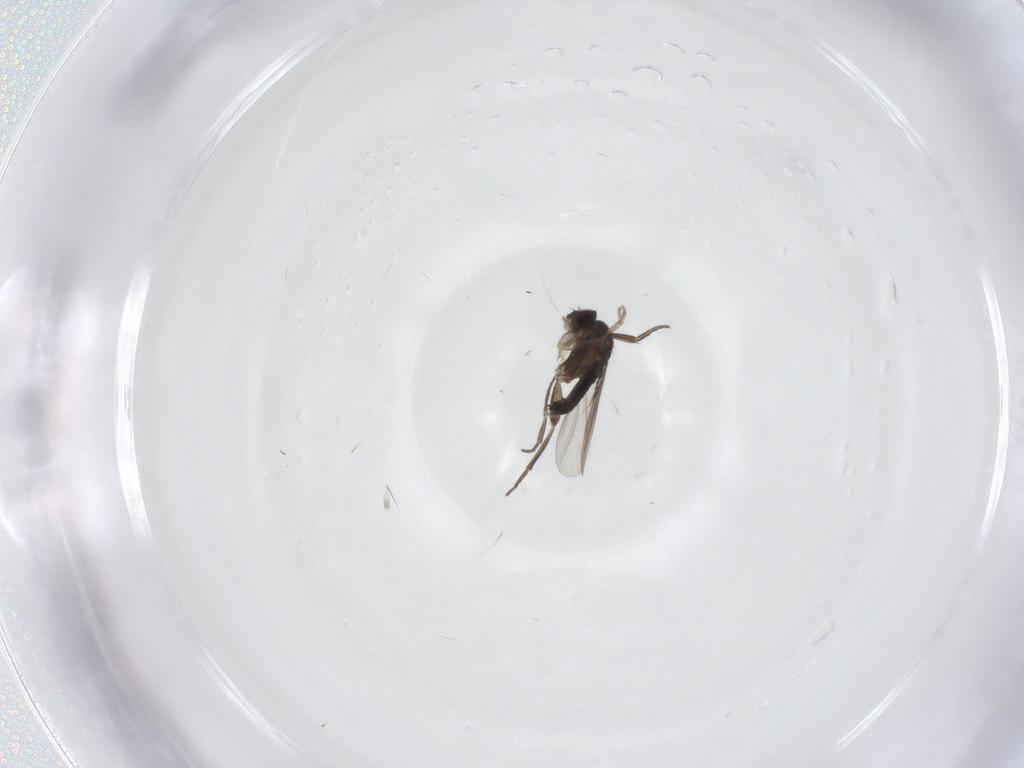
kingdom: Animalia
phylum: Arthropoda
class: Insecta
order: Diptera
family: Phoridae
